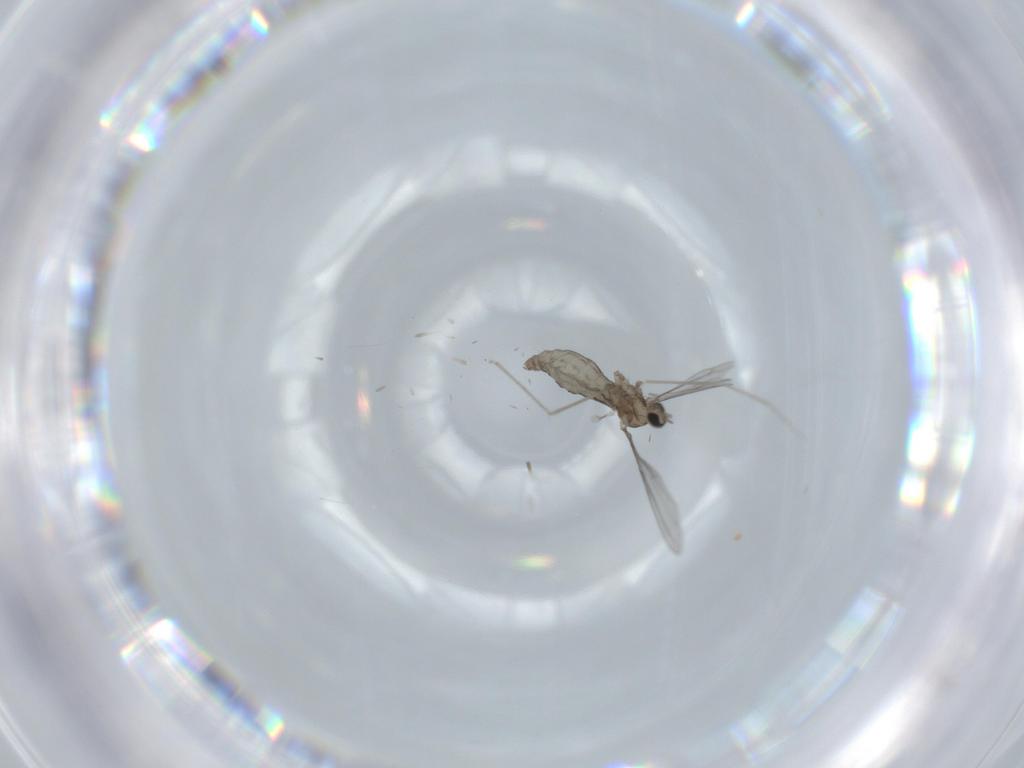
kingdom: Animalia
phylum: Arthropoda
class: Insecta
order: Diptera
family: Cecidomyiidae
